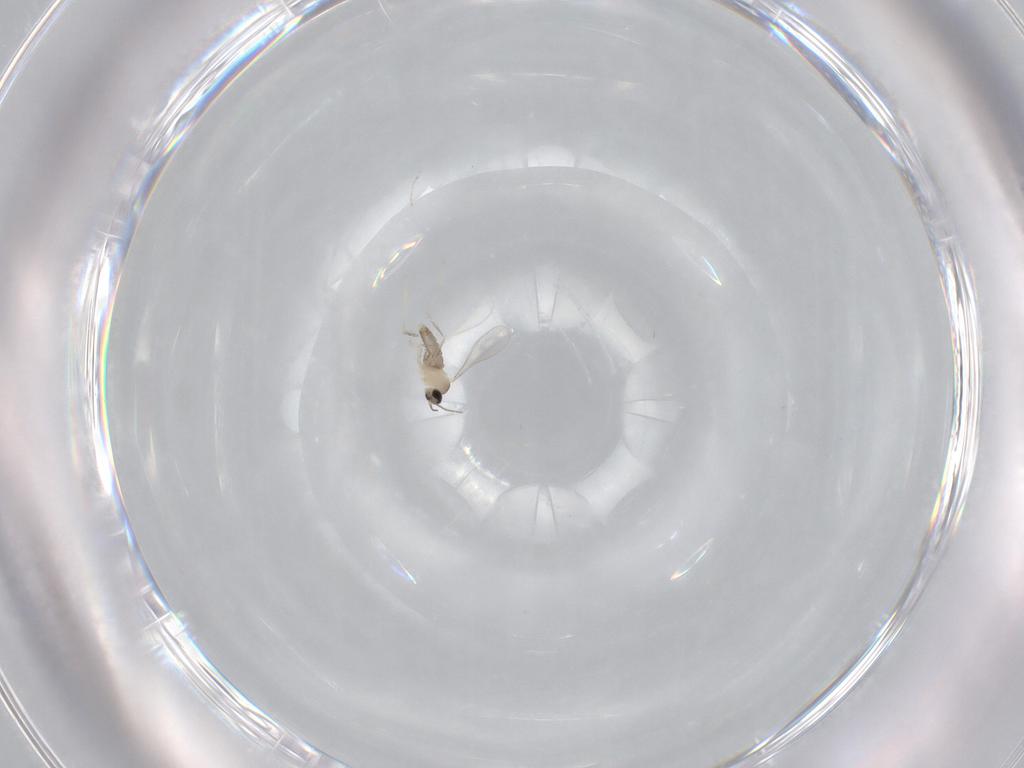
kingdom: Animalia
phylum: Arthropoda
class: Insecta
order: Diptera
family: Cecidomyiidae
